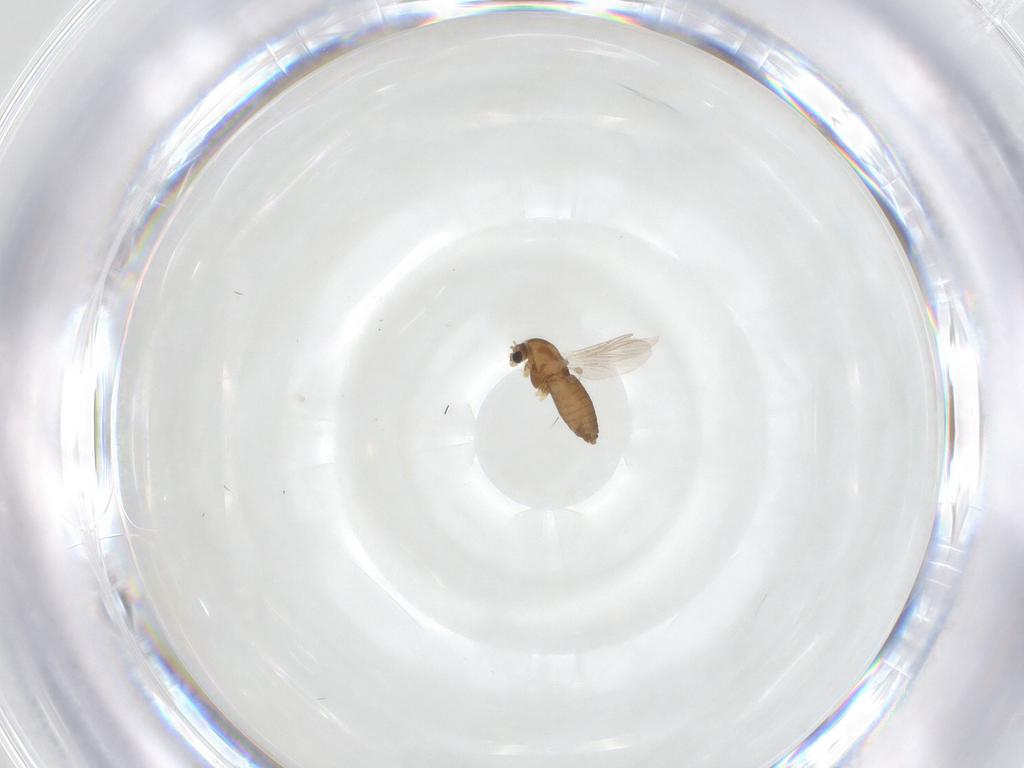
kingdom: Animalia
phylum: Arthropoda
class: Insecta
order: Diptera
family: Chironomidae
